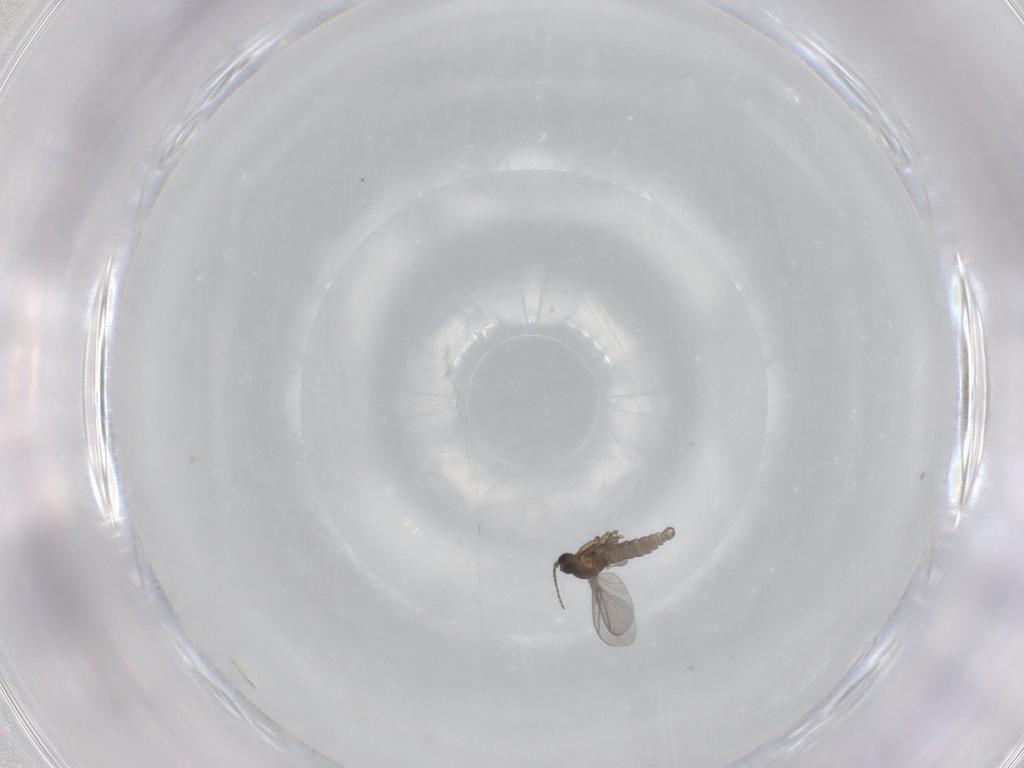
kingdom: Animalia
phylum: Arthropoda
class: Insecta
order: Diptera
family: Sciaridae
